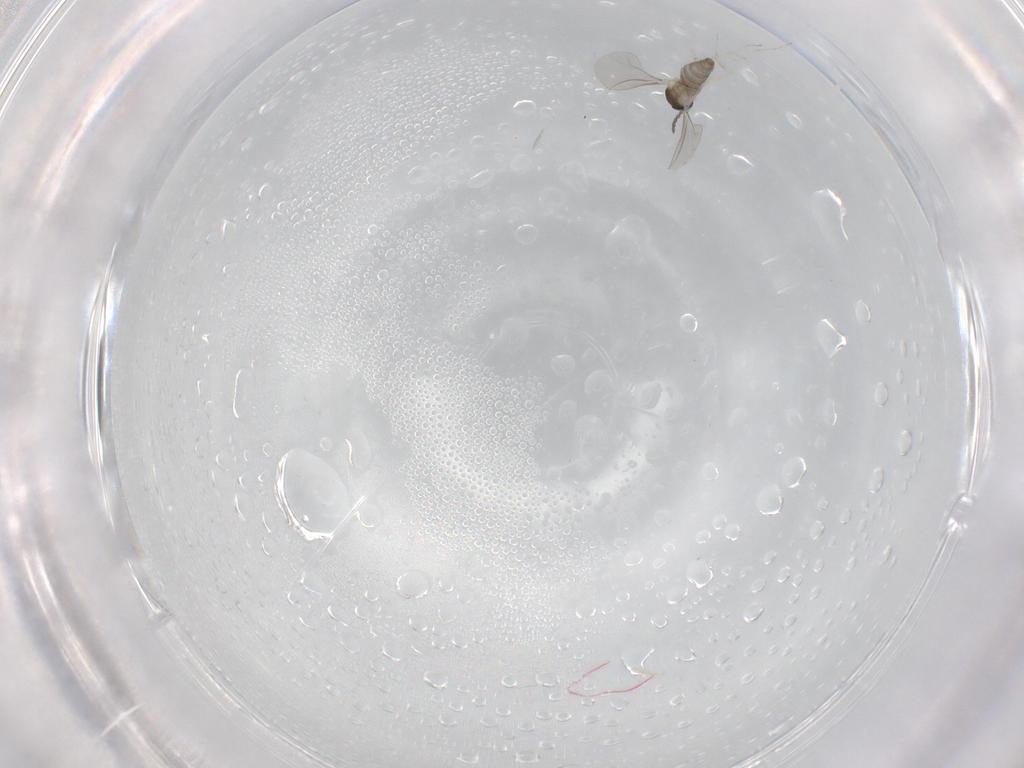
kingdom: Animalia
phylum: Arthropoda
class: Insecta
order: Diptera
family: Cecidomyiidae
